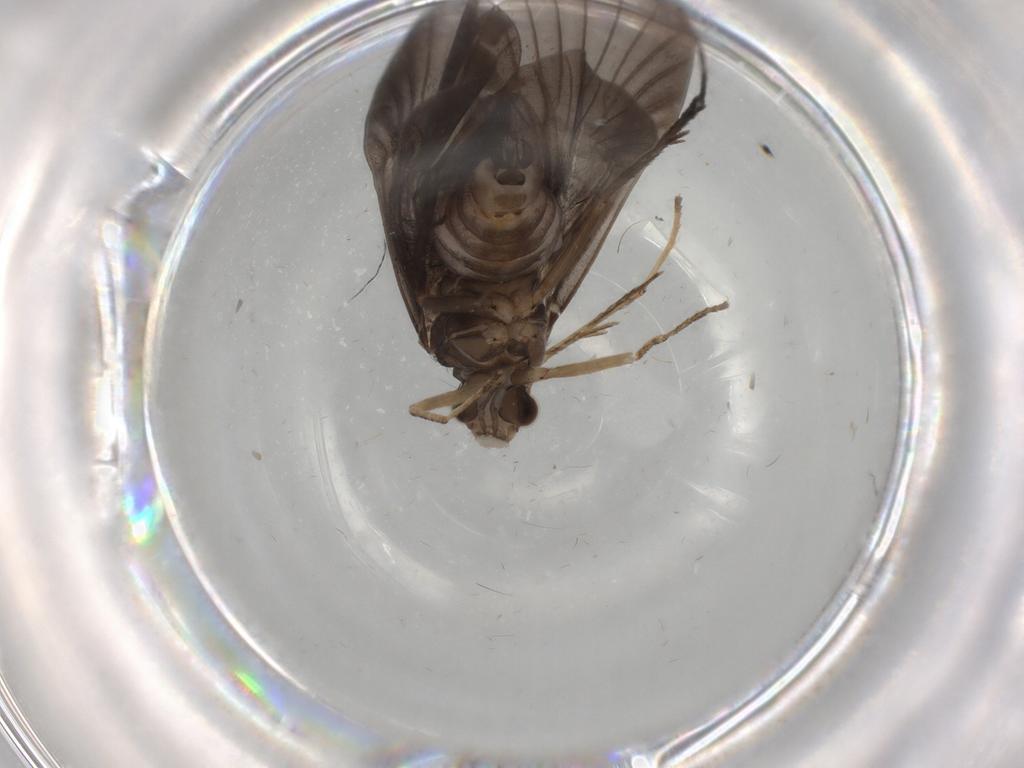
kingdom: Animalia
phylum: Arthropoda
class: Insecta
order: Trichoptera
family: Hydropsychidae
